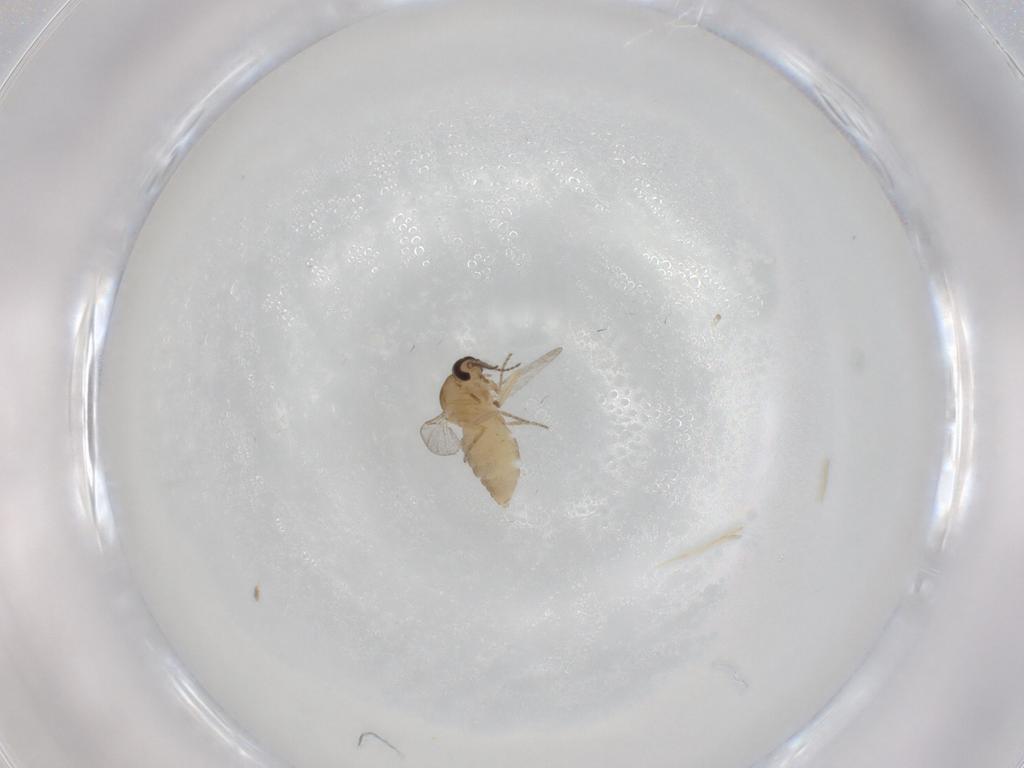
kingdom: Animalia
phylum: Arthropoda
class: Insecta
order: Diptera
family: Ceratopogonidae
